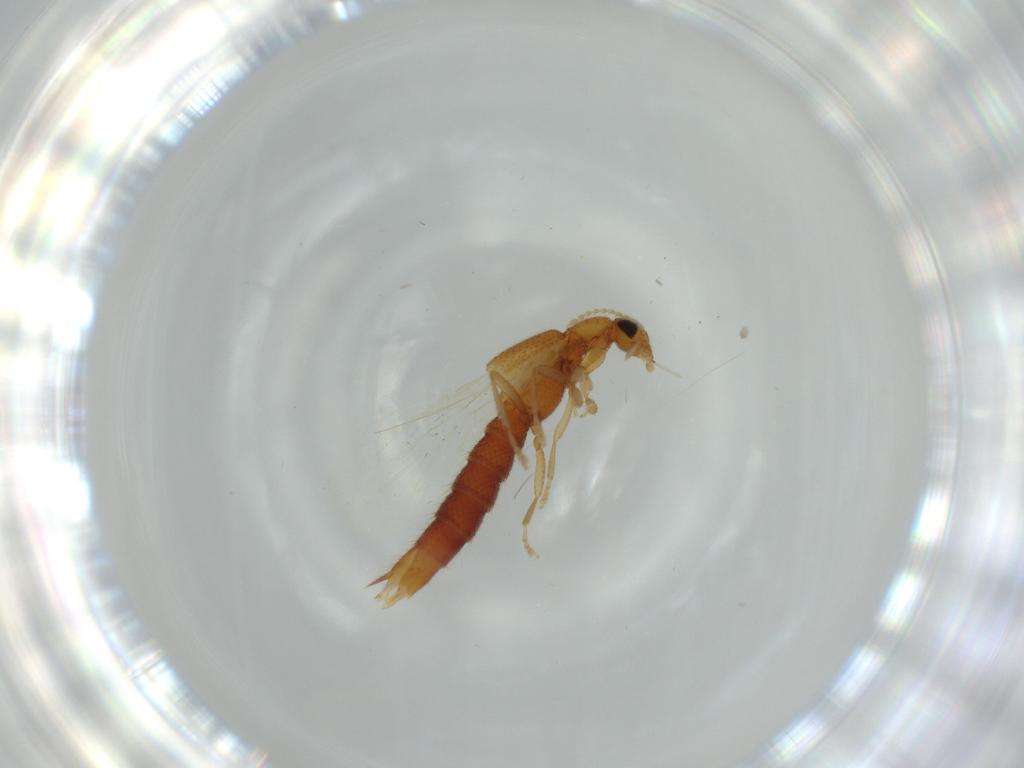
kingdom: Animalia
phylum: Arthropoda
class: Insecta
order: Coleoptera
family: Staphylinidae
